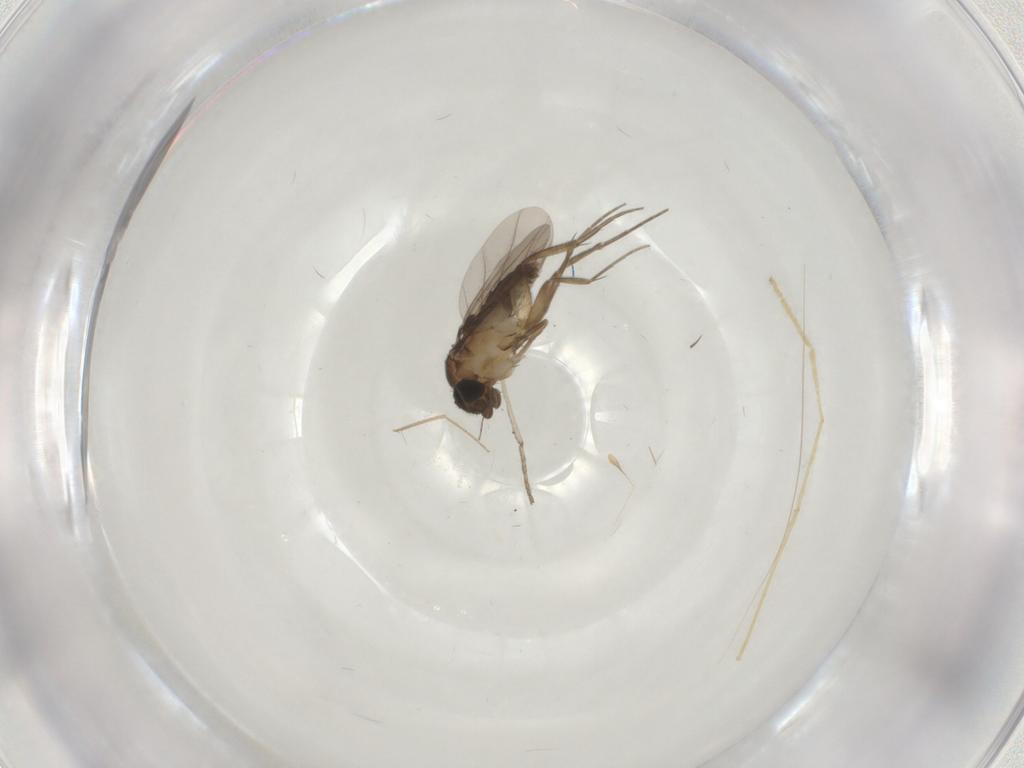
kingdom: Animalia
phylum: Arthropoda
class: Insecta
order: Diptera
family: Phoridae
